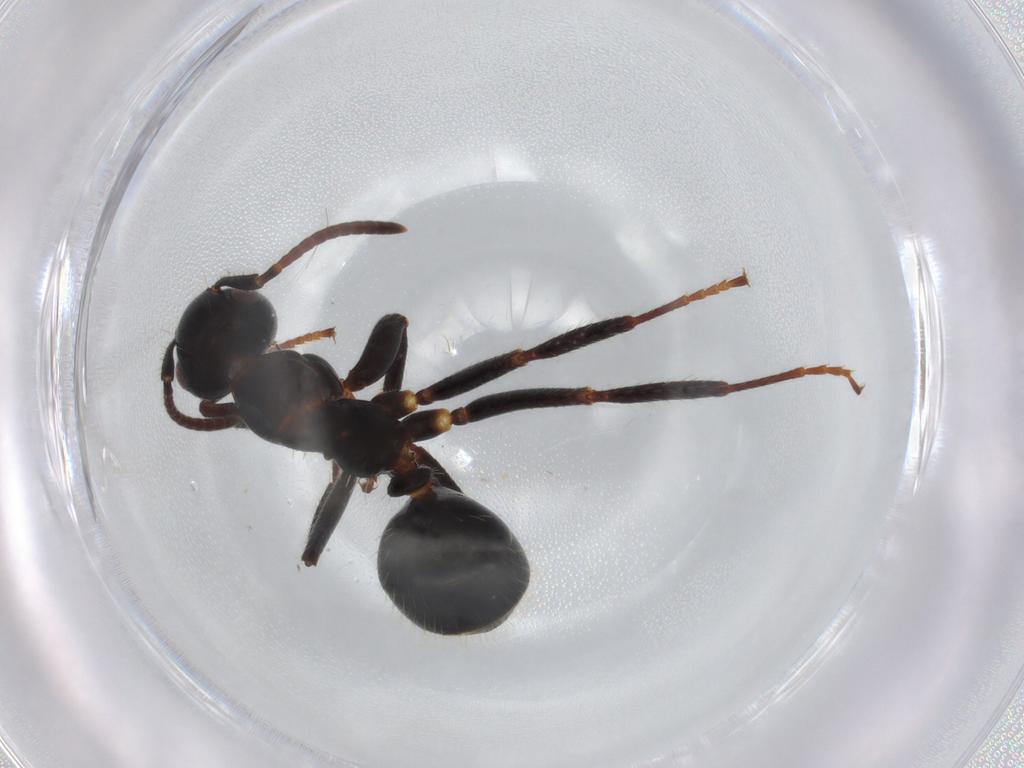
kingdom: Animalia
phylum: Arthropoda
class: Insecta
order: Hymenoptera
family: Formicidae
